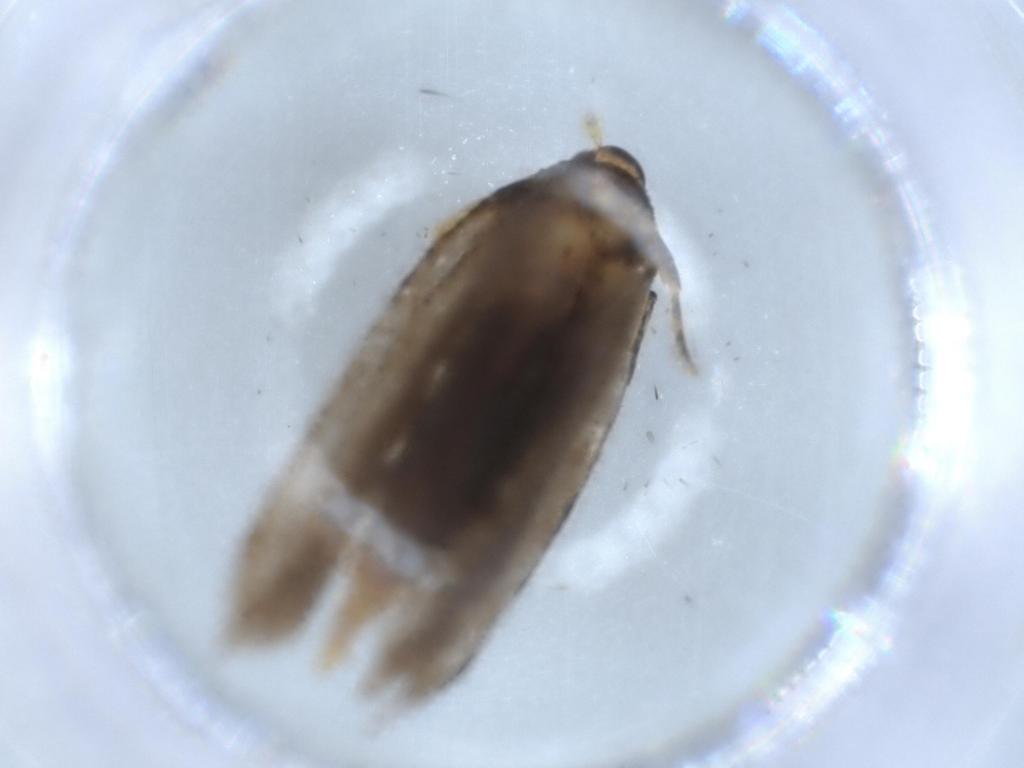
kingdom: Animalia
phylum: Arthropoda
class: Insecta
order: Lepidoptera
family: Lecithoceridae
